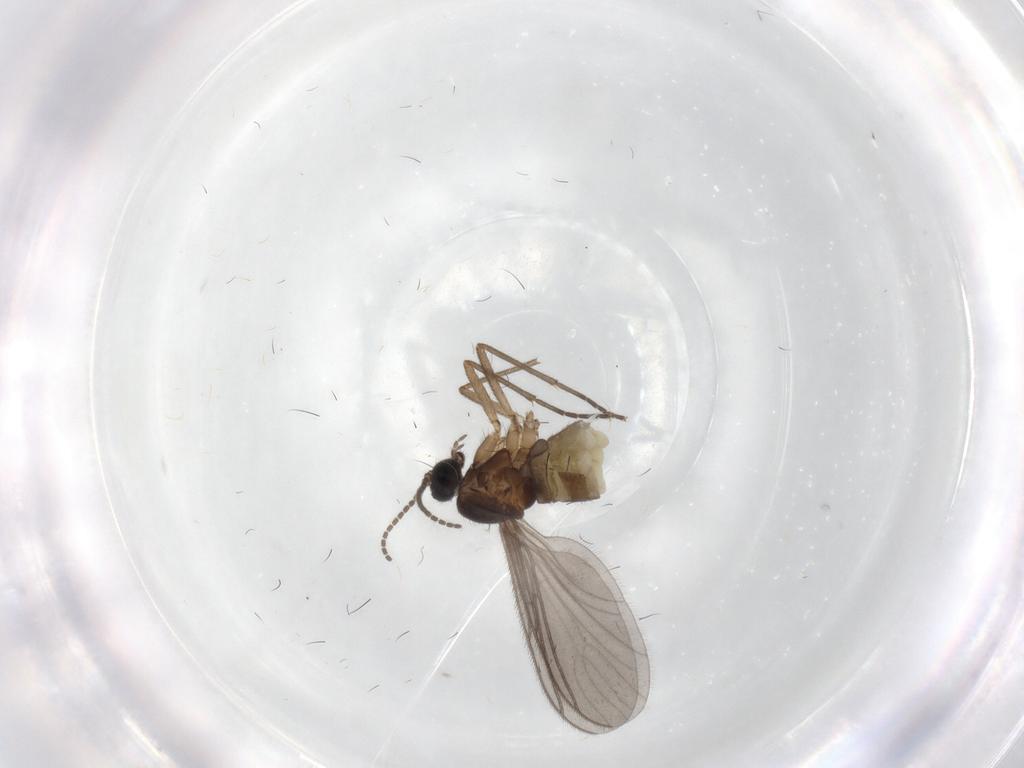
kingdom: Animalia
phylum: Arthropoda
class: Insecta
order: Diptera
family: Sciaridae
